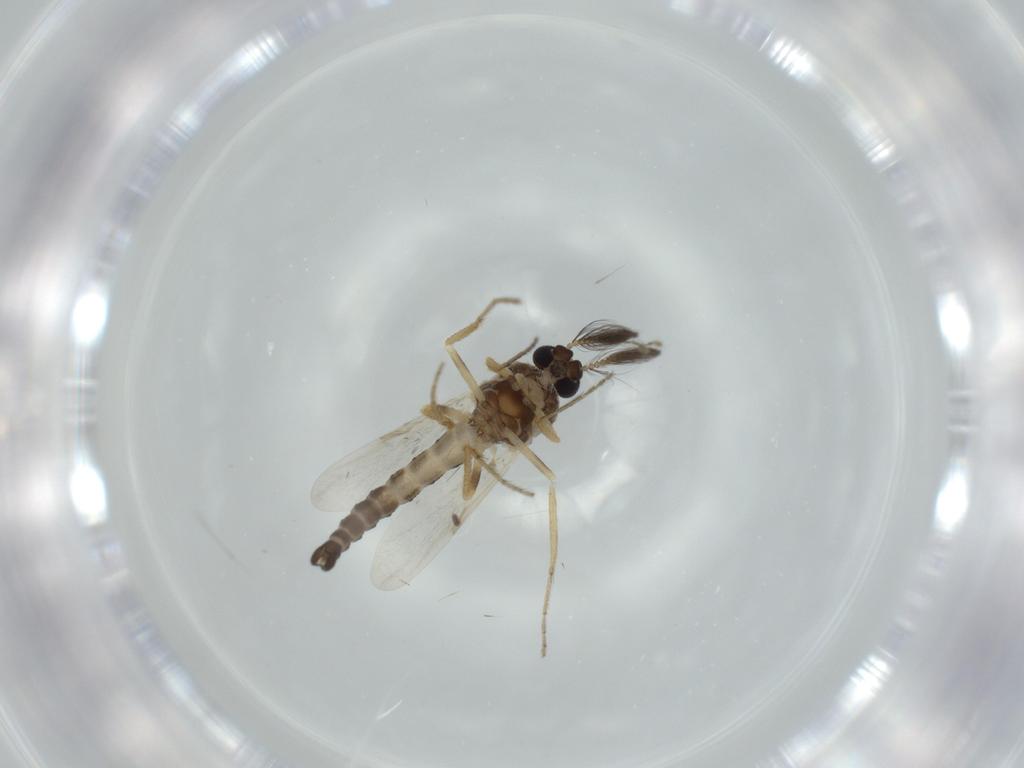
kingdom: Animalia
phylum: Arthropoda
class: Insecta
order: Diptera
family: Ceratopogonidae
